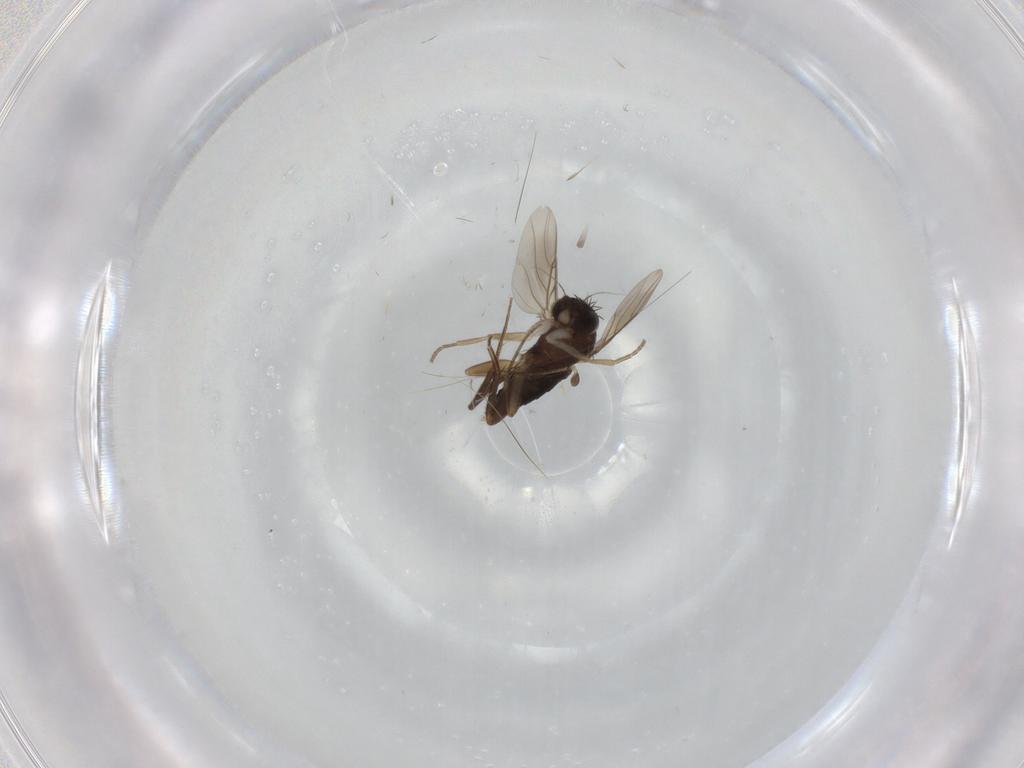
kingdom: Animalia
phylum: Arthropoda
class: Insecta
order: Diptera
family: Phoridae
